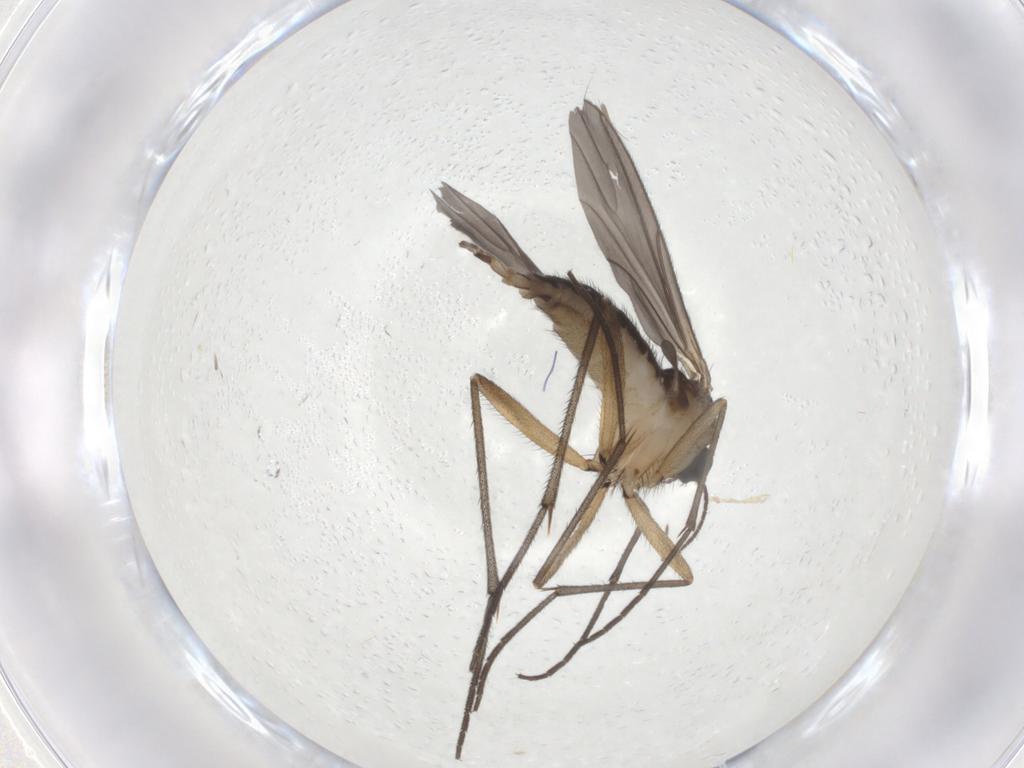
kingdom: Animalia
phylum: Arthropoda
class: Insecta
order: Diptera
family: Sciaridae
